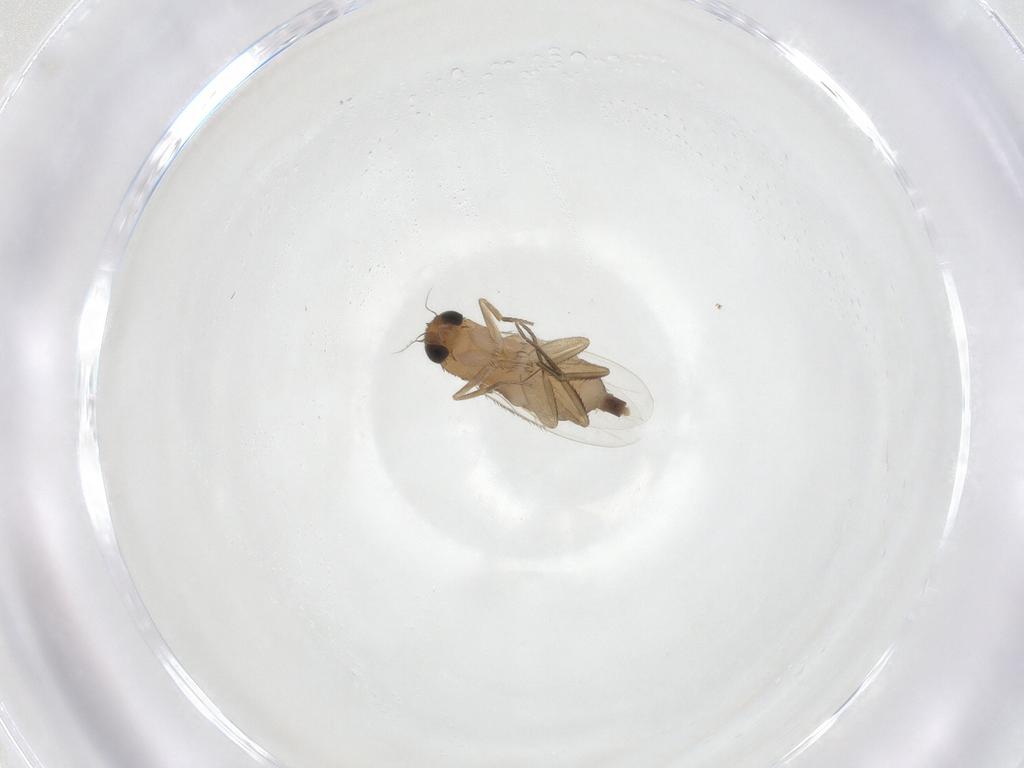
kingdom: Animalia
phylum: Arthropoda
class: Insecta
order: Diptera
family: Phoridae
